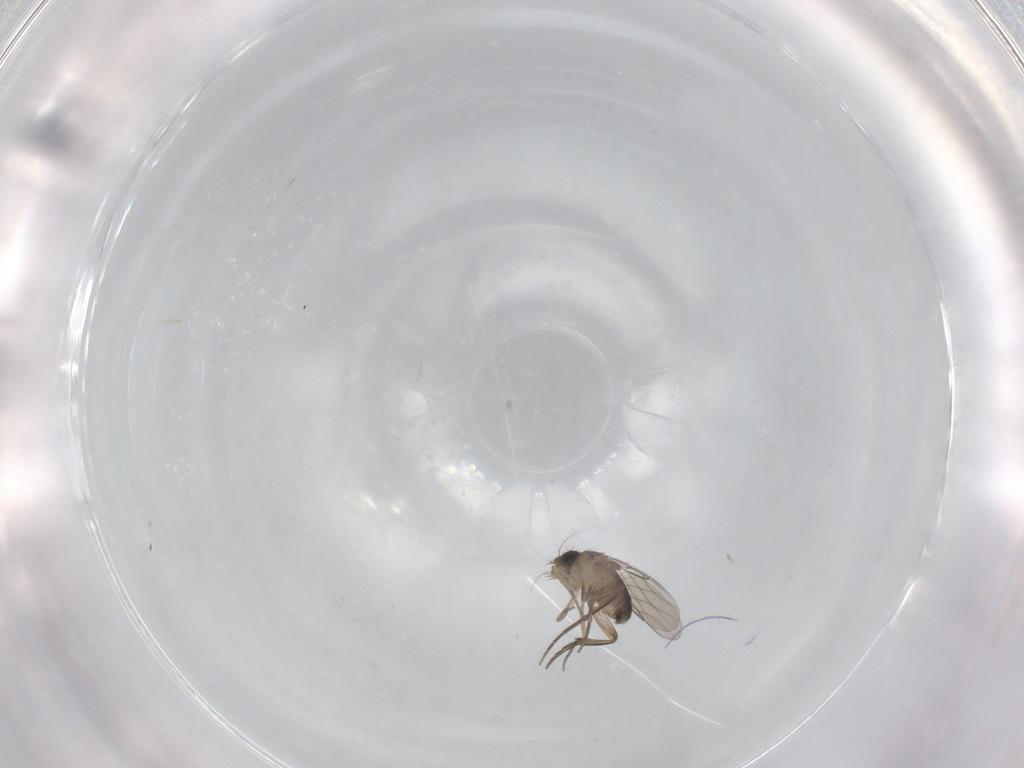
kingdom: Animalia
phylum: Arthropoda
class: Insecta
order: Diptera
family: Phoridae
